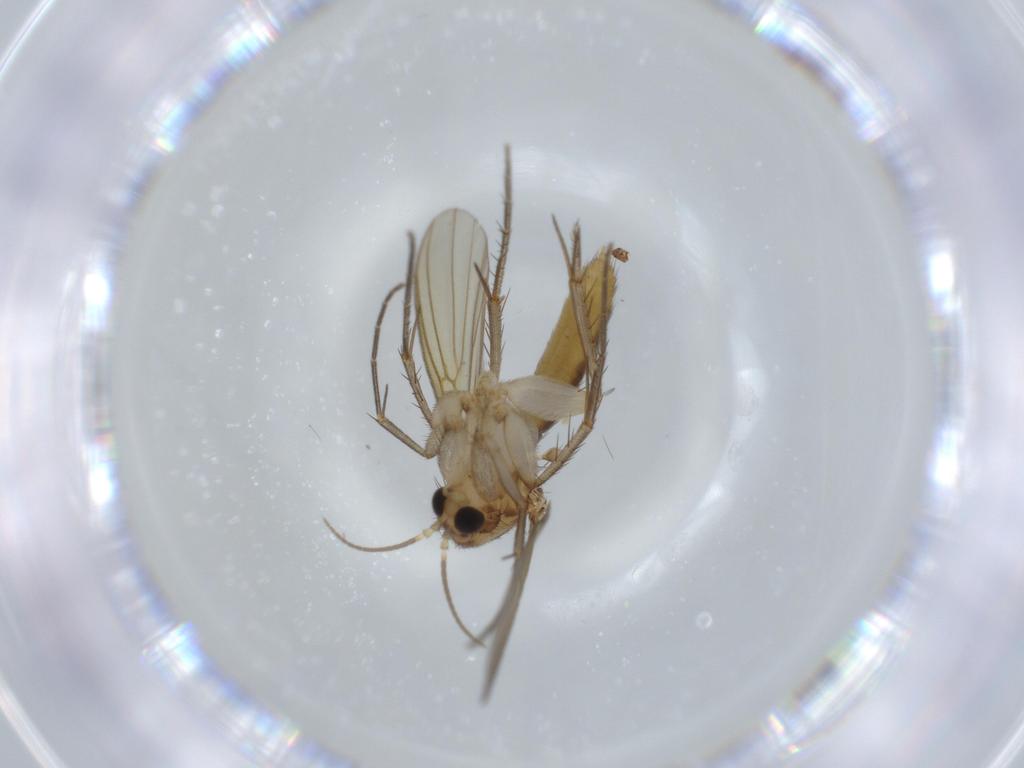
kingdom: Animalia
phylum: Arthropoda
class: Insecta
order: Diptera
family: Mycetophilidae
